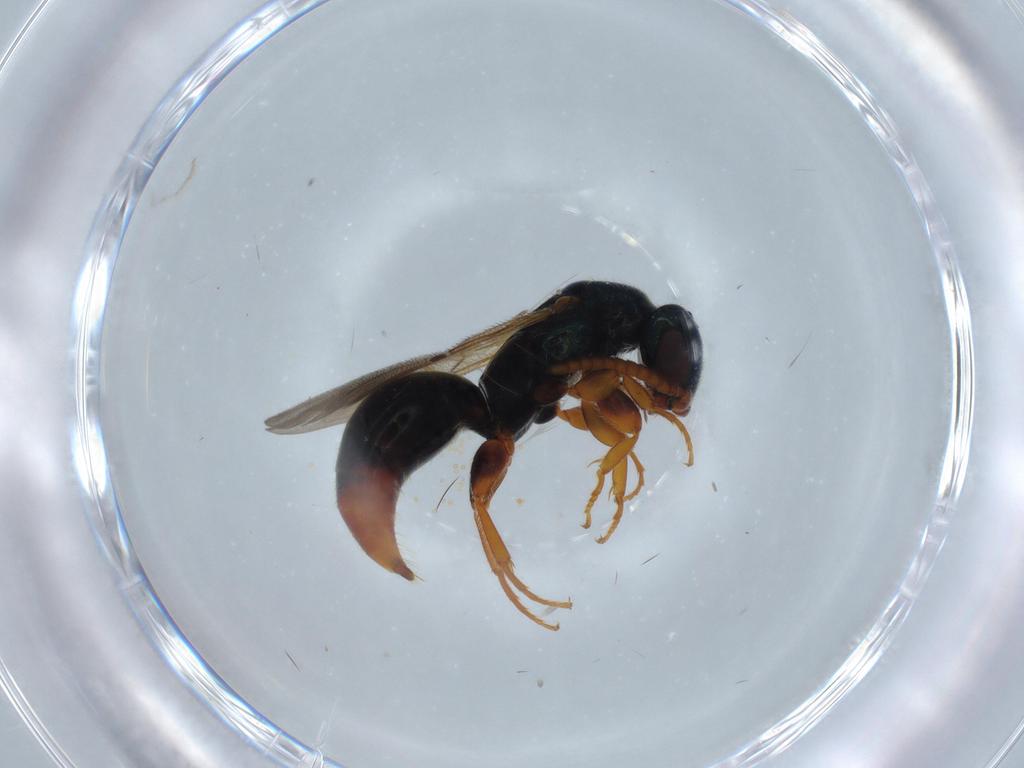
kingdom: Animalia
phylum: Arthropoda
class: Insecta
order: Hymenoptera
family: Bethylidae
